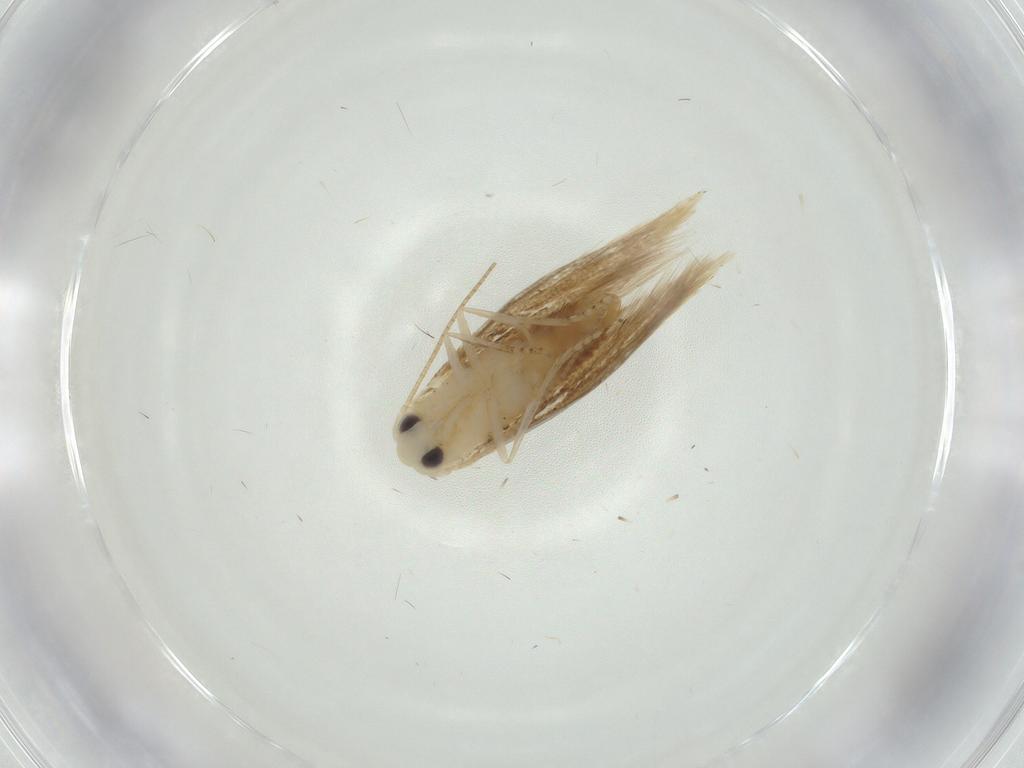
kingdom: Animalia
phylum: Arthropoda
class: Insecta
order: Lepidoptera
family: Bucculatricidae
